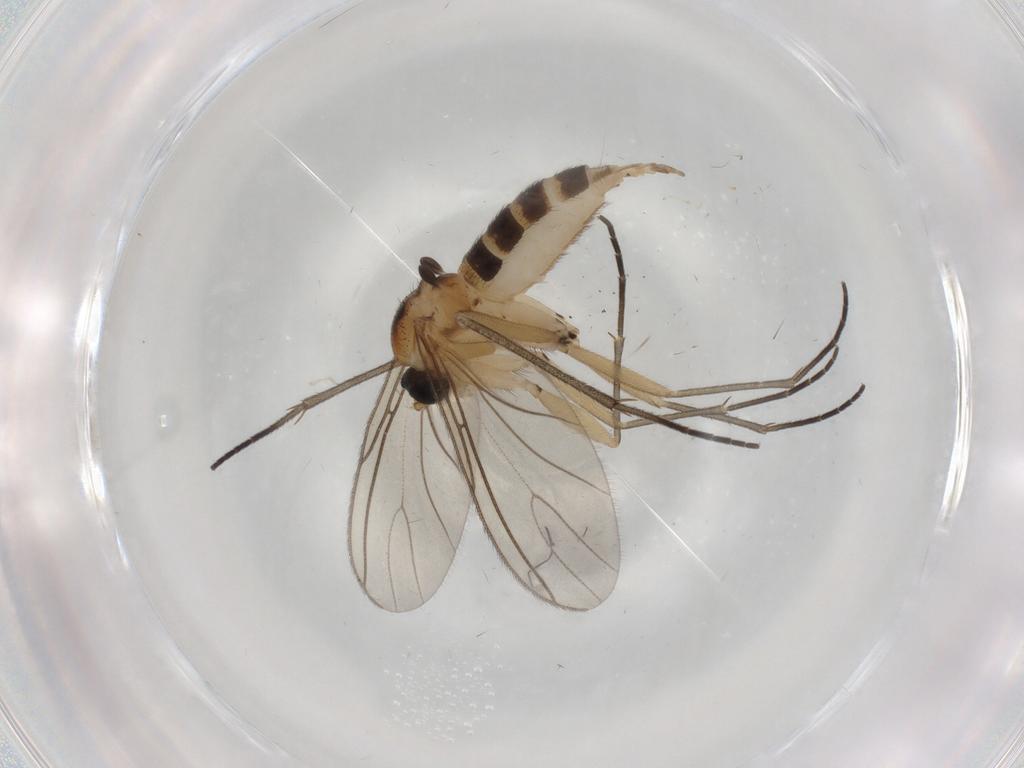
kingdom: Animalia
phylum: Arthropoda
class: Insecta
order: Diptera
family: Sciaridae
